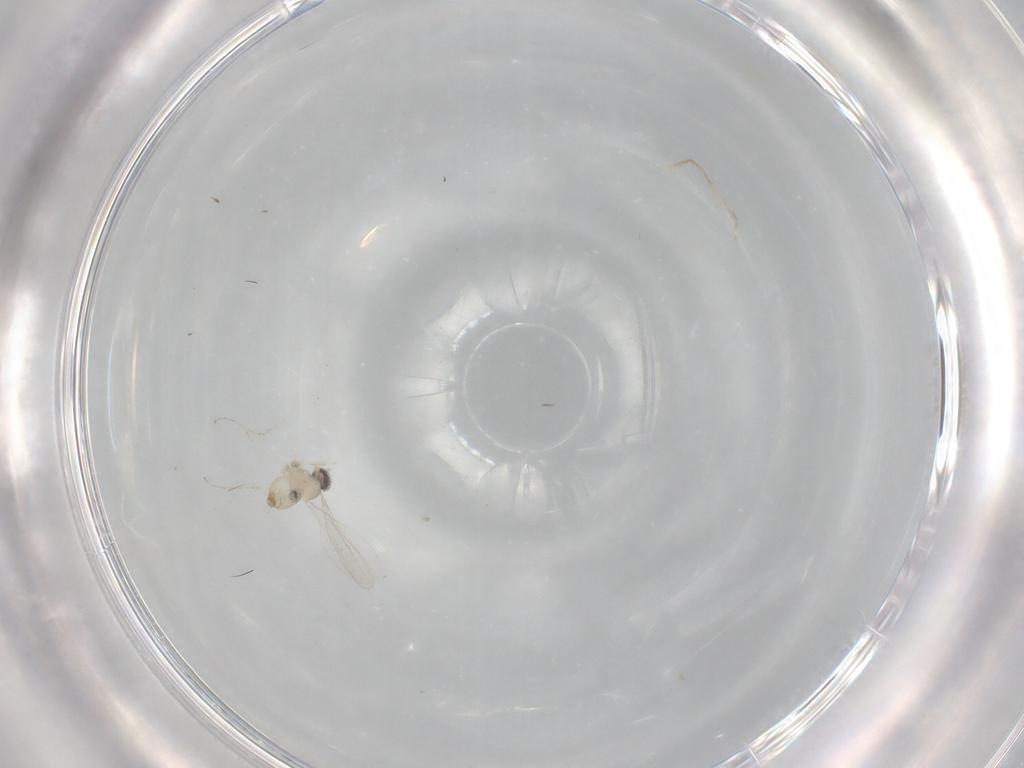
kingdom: Animalia
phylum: Arthropoda
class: Insecta
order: Diptera
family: Cecidomyiidae
